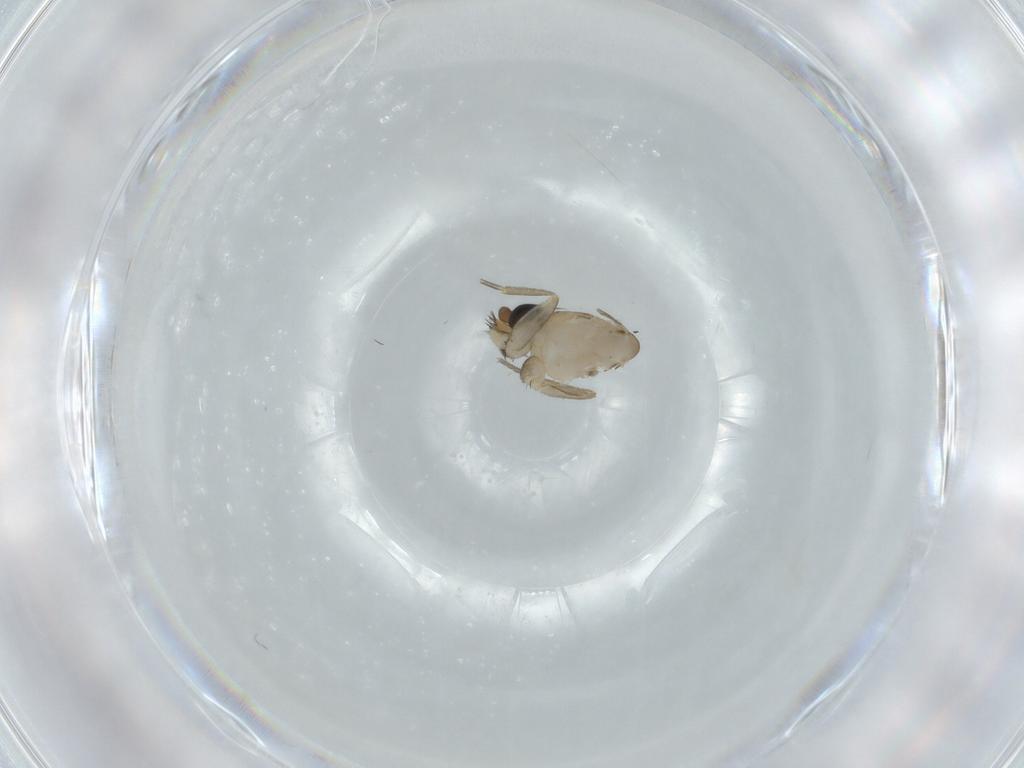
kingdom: Animalia
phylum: Arthropoda
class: Insecta
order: Diptera
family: Cecidomyiidae
